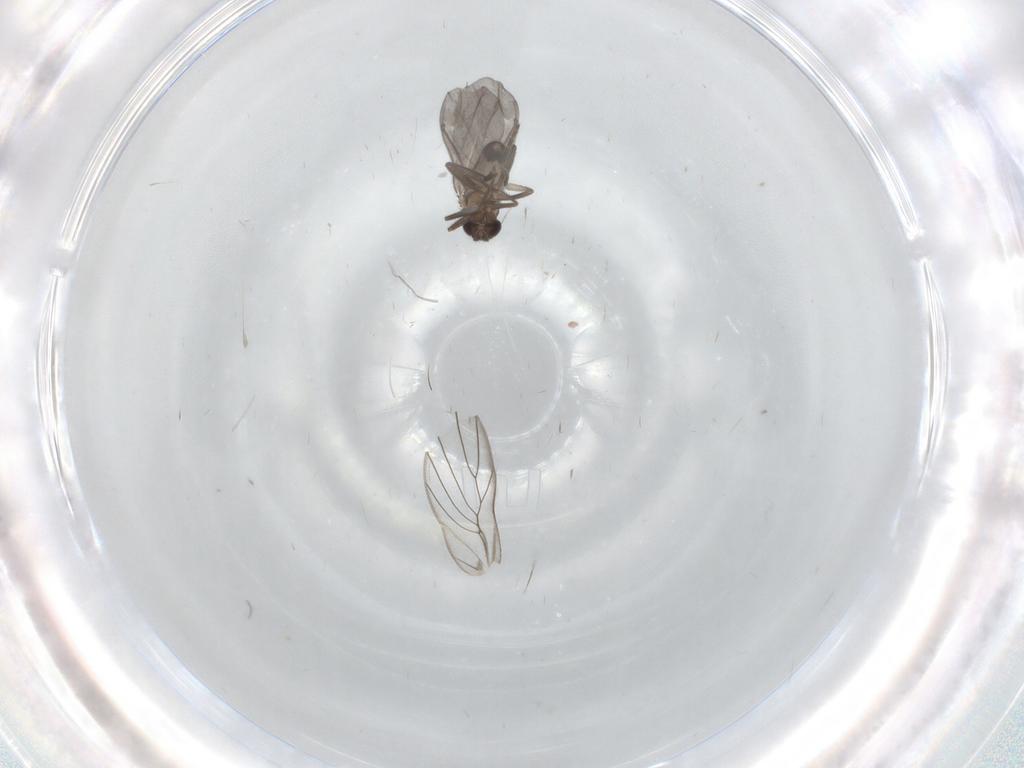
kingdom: Animalia
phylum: Arthropoda
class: Insecta
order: Diptera
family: Phoridae
